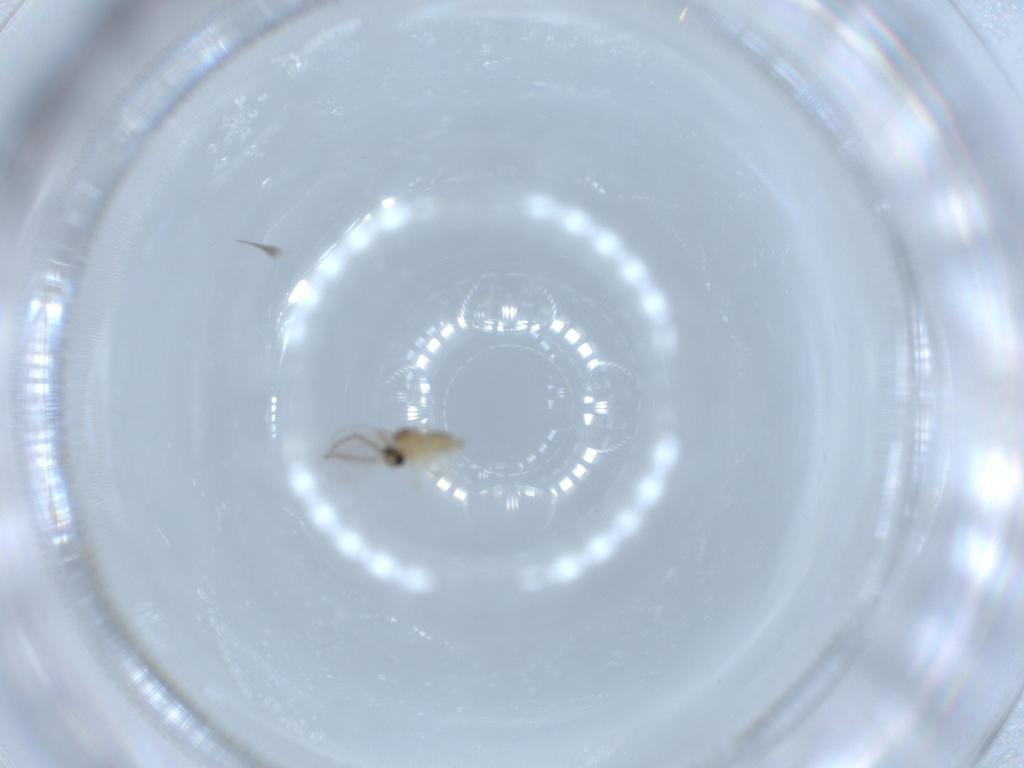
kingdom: Animalia
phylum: Arthropoda
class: Insecta
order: Diptera
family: Cecidomyiidae
